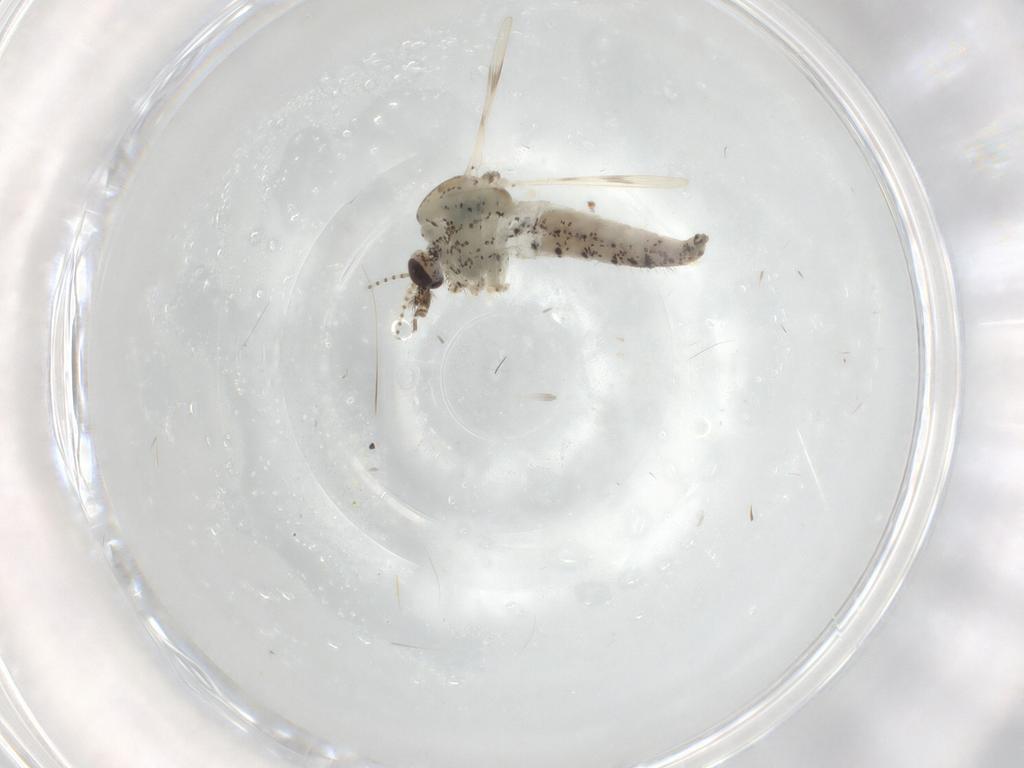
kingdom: Animalia
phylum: Arthropoda
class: Insecta
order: Diptera
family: Chaoboridae
